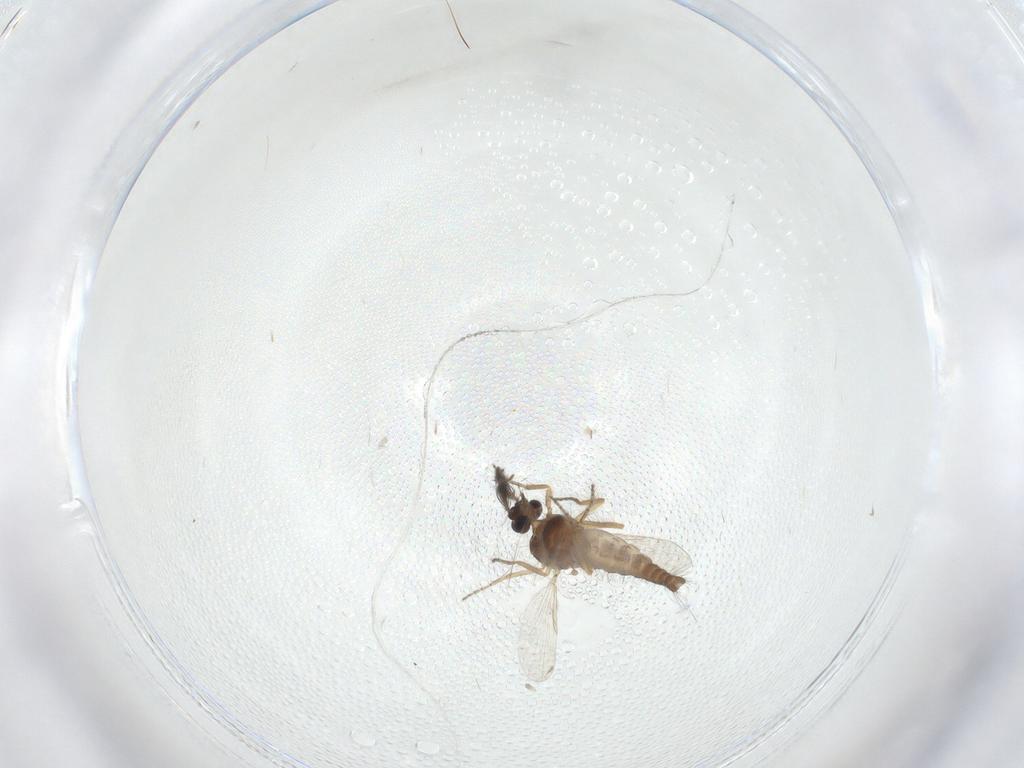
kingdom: Animalia
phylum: Arthropoda
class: Insecta
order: Diptera
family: Ceratopogonidae
